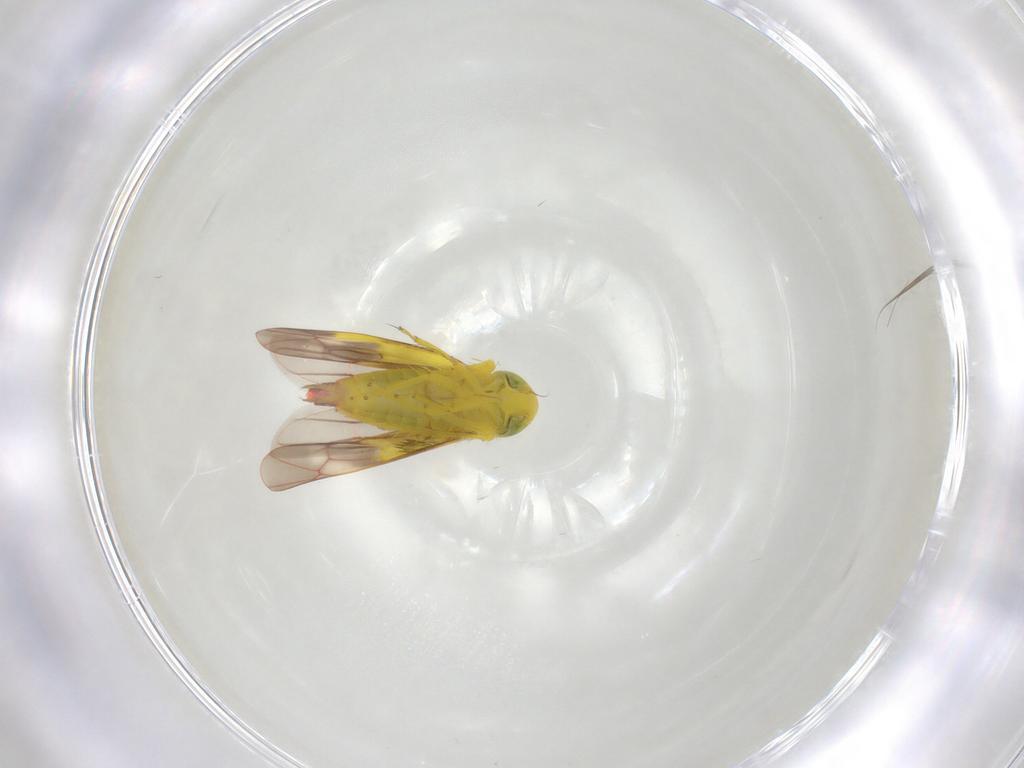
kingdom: Animalia
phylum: Arthropoda
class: Insecta
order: Hemiptera
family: Cicadellidae
